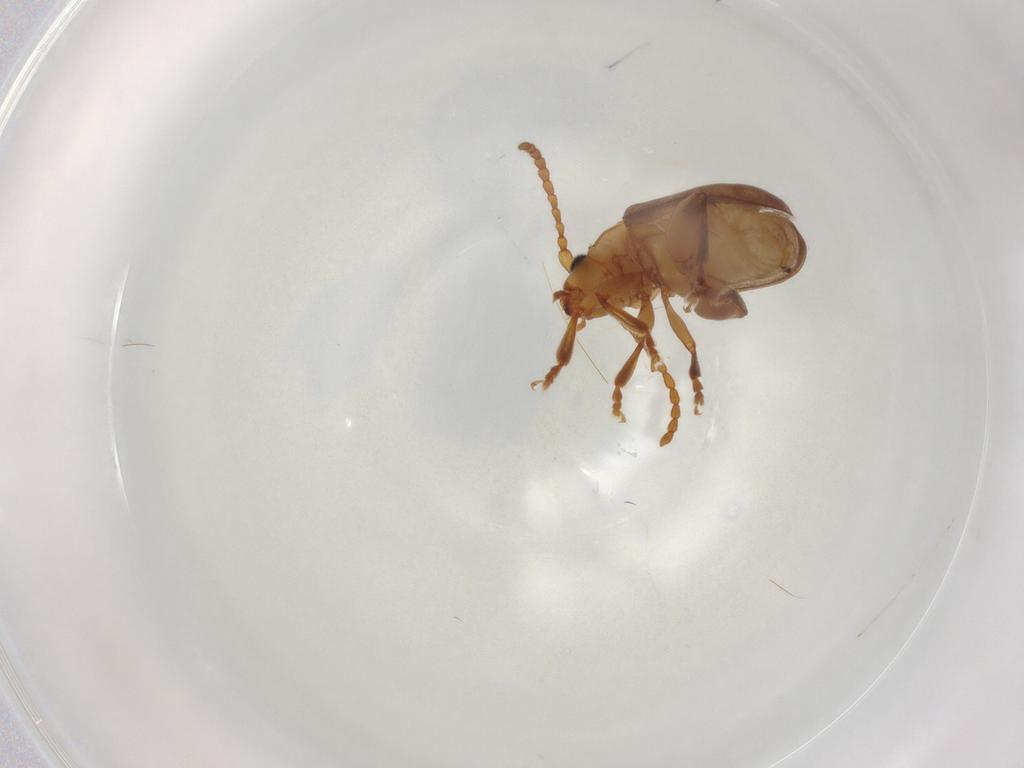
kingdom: Animalia
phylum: Arthropoda
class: Insecta
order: Coleoptera
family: Chrysomelidae
